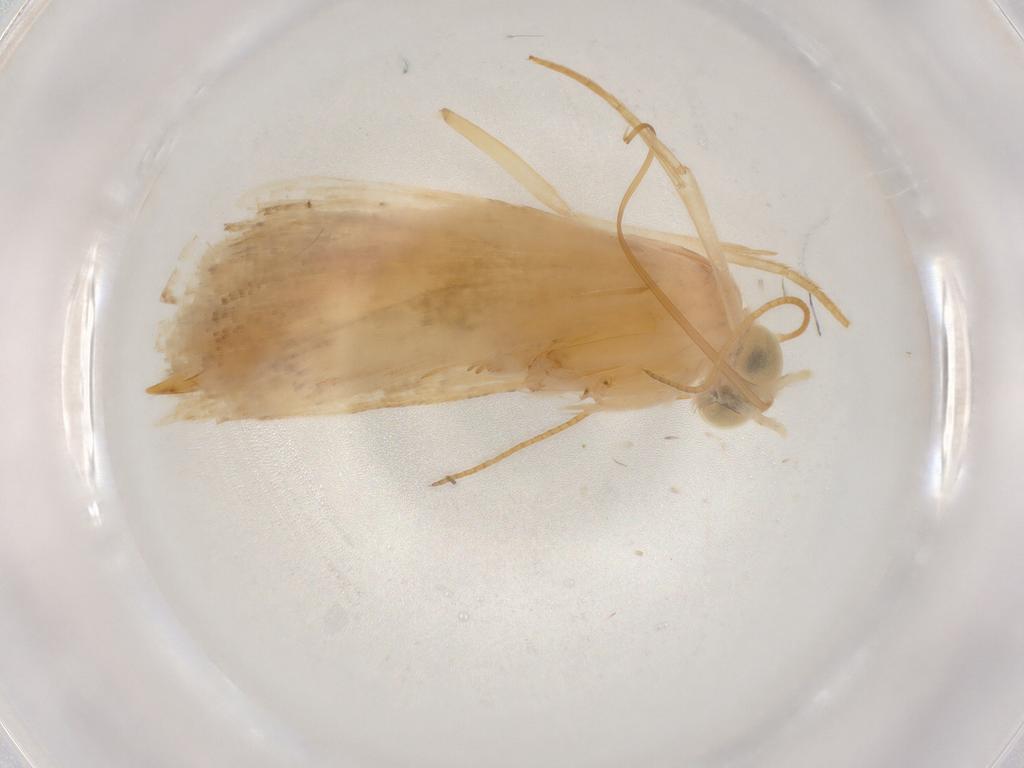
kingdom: Animalia
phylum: Arthropoda
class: Insecta
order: Lepidoptera
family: Noctuidae
